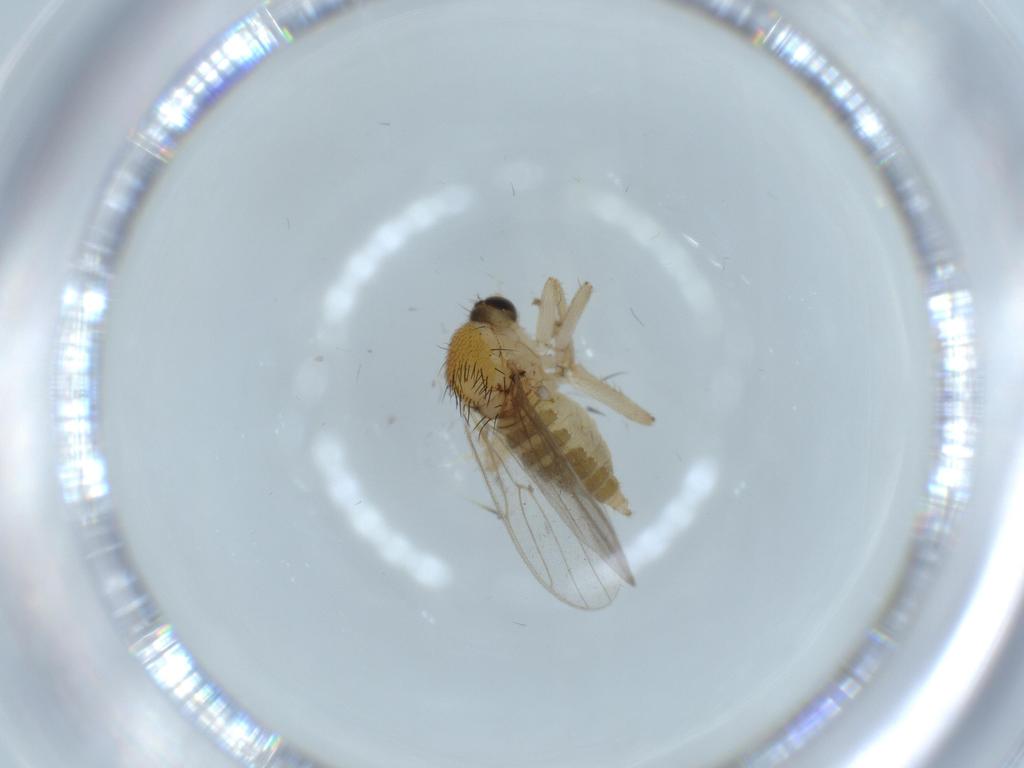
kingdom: Animalia
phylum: Arthropoda
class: Insecta
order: Diptera
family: Hybotidae
